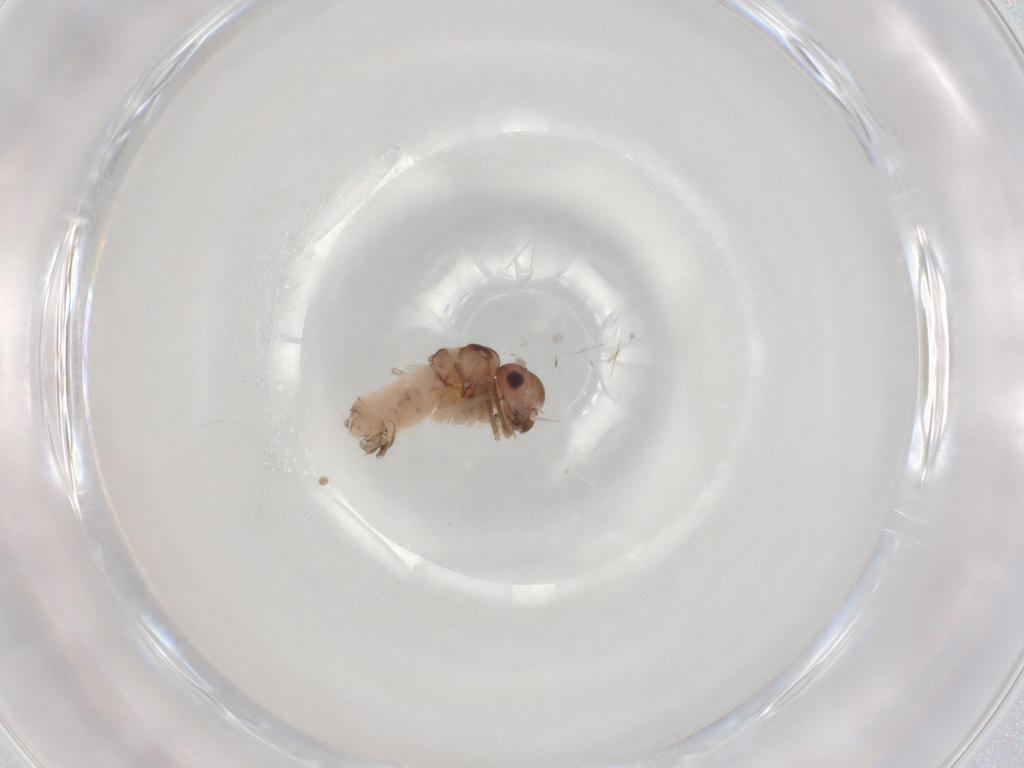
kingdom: Animalia
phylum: Arthropoda
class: Insecta
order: Psocodea
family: Peripsocidae
